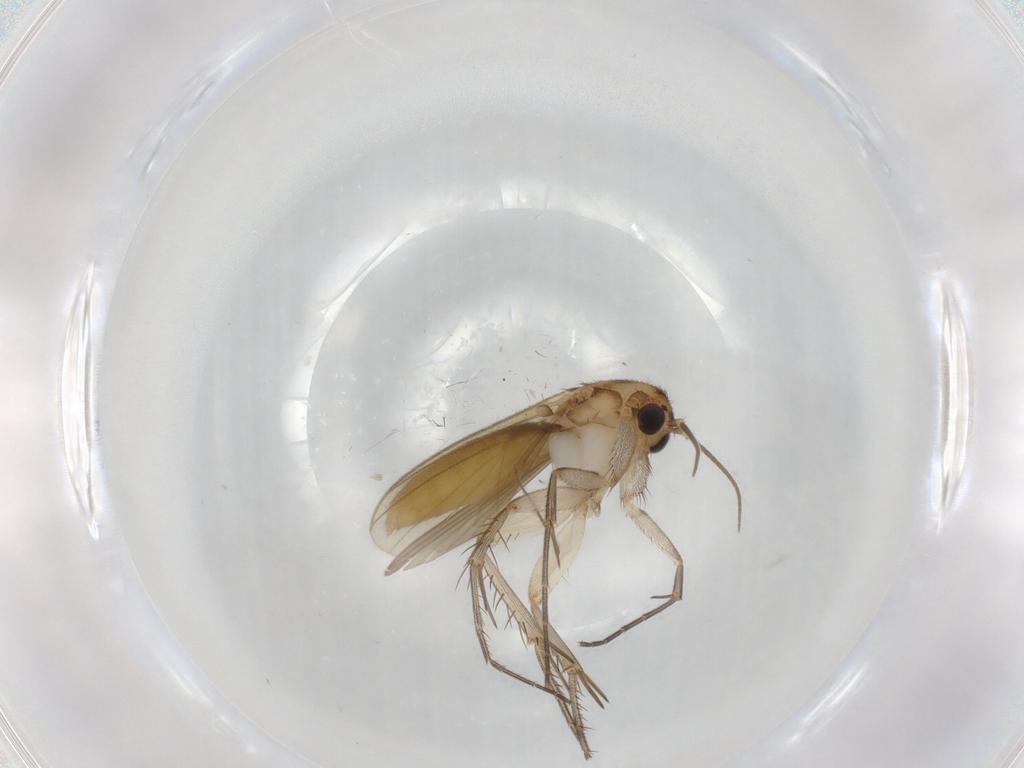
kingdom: Animalia
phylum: Arthropoda
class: Insecta
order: Diptera
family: Mycetophilidae
